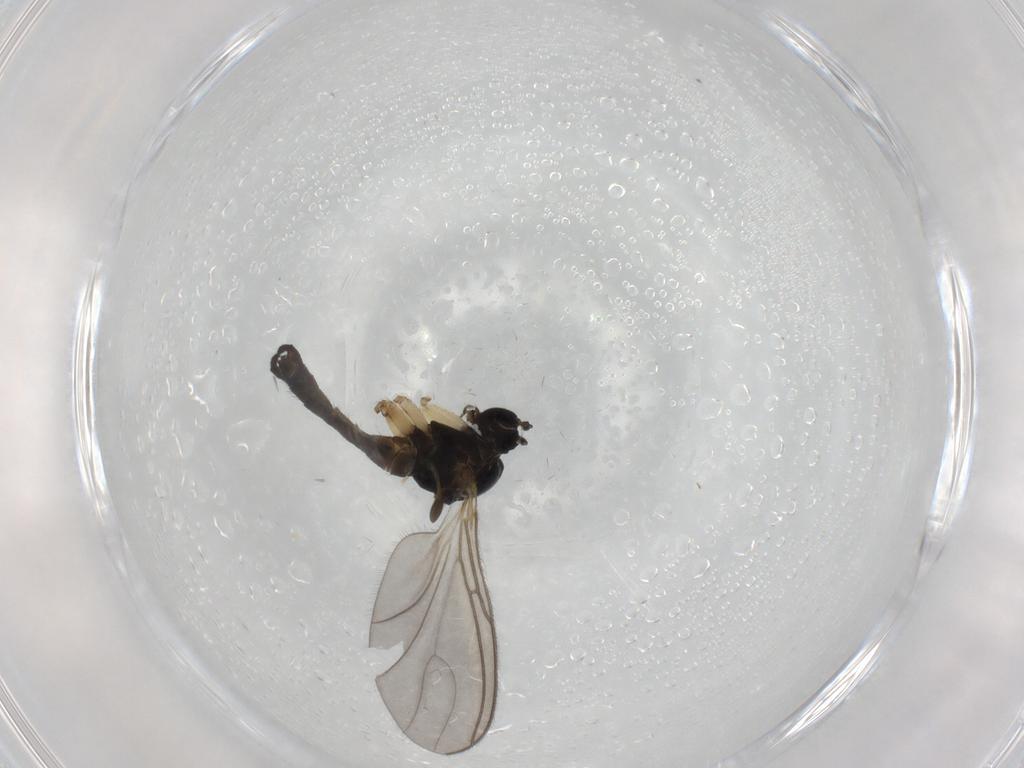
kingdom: Animalia
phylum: Arthropoda
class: Insecta
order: Diptera
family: Sciaridae
